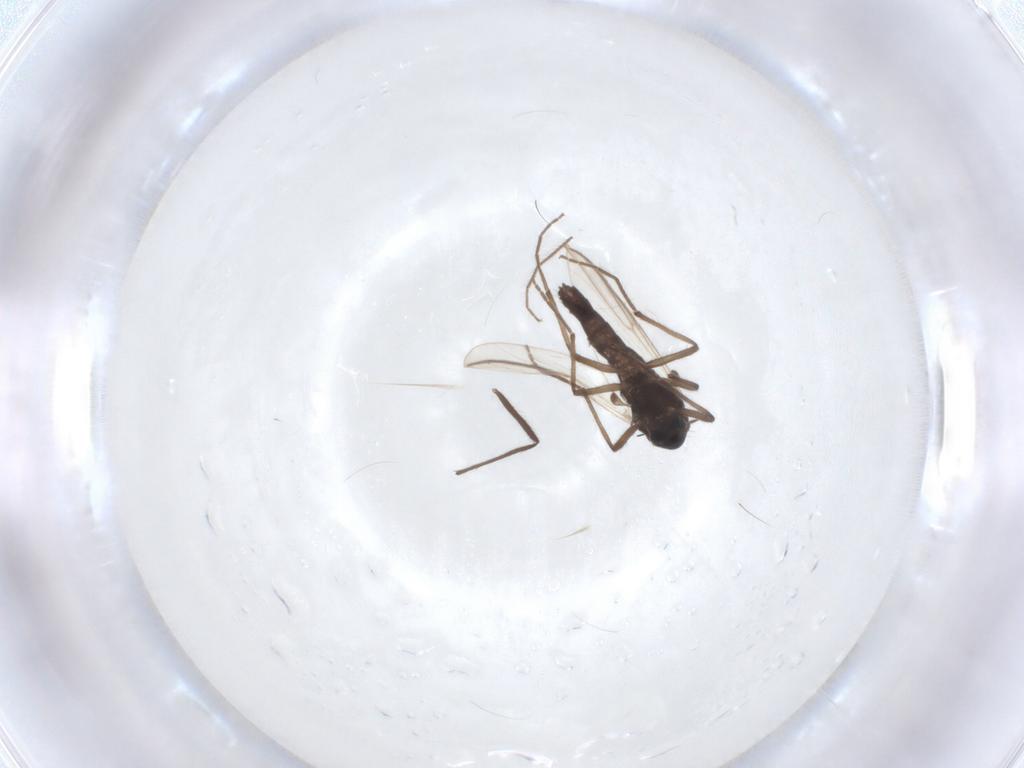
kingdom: Animalia
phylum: Arthropoda
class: Insecta
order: Diptera
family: Chironomidae
